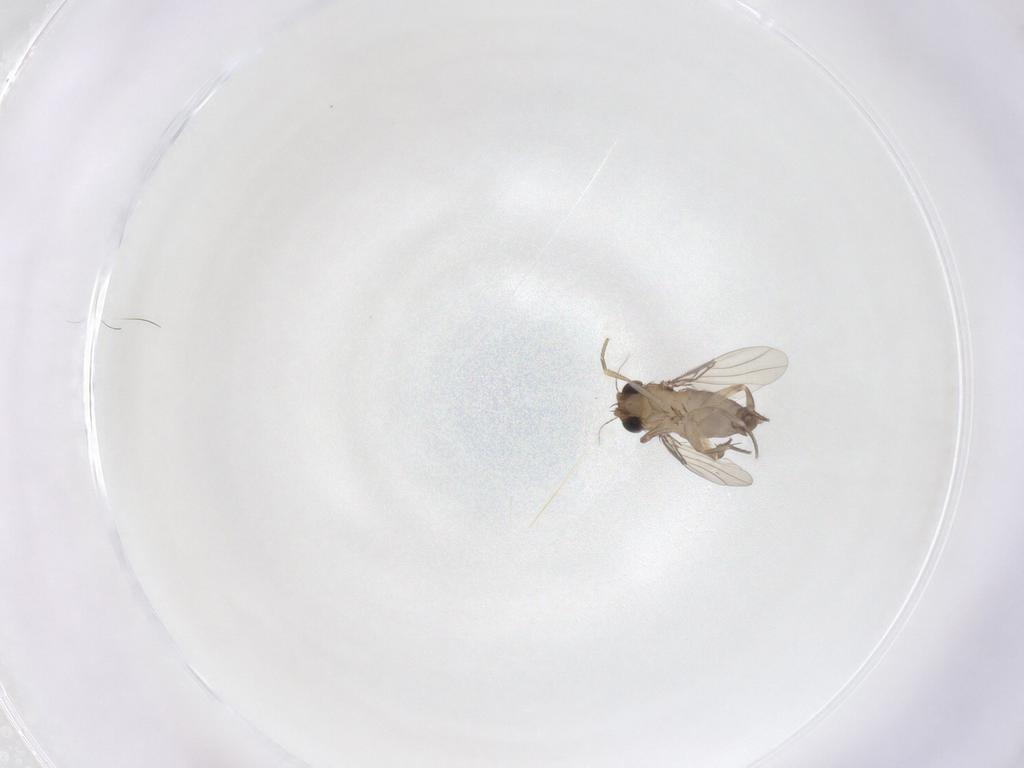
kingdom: Animalia
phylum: Arthropoda
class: Insecta
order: Diptera
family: Phoridae
